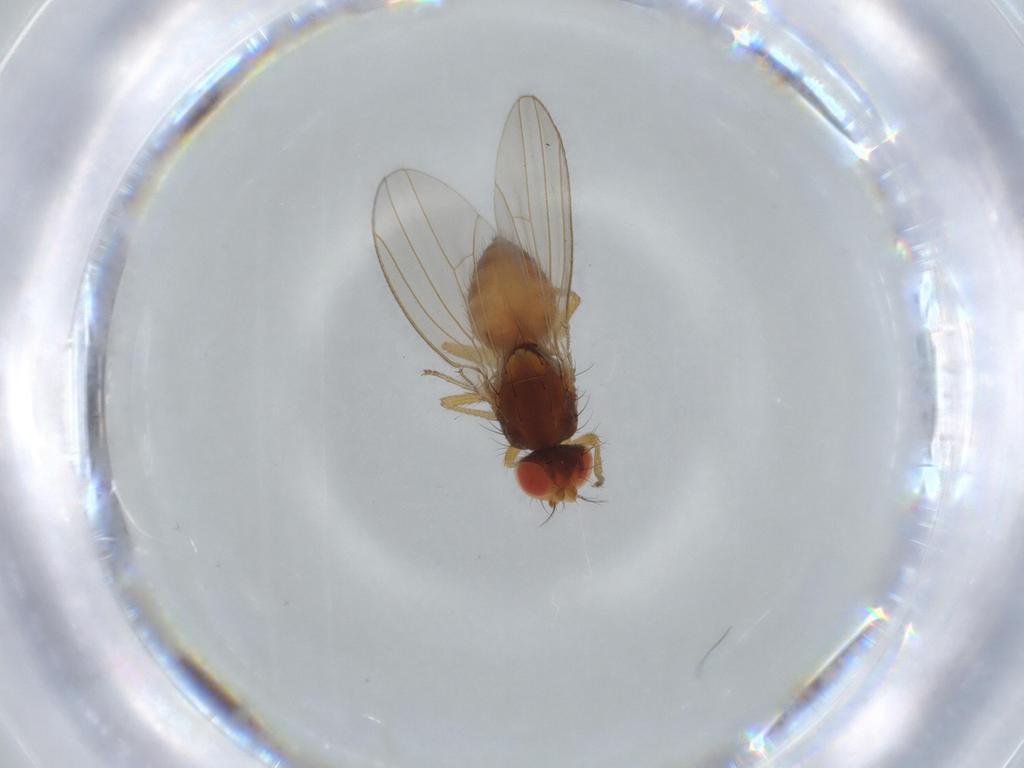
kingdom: Animalia
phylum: Arthropoda
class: Insecta
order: Diptera
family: Drosophilidae
